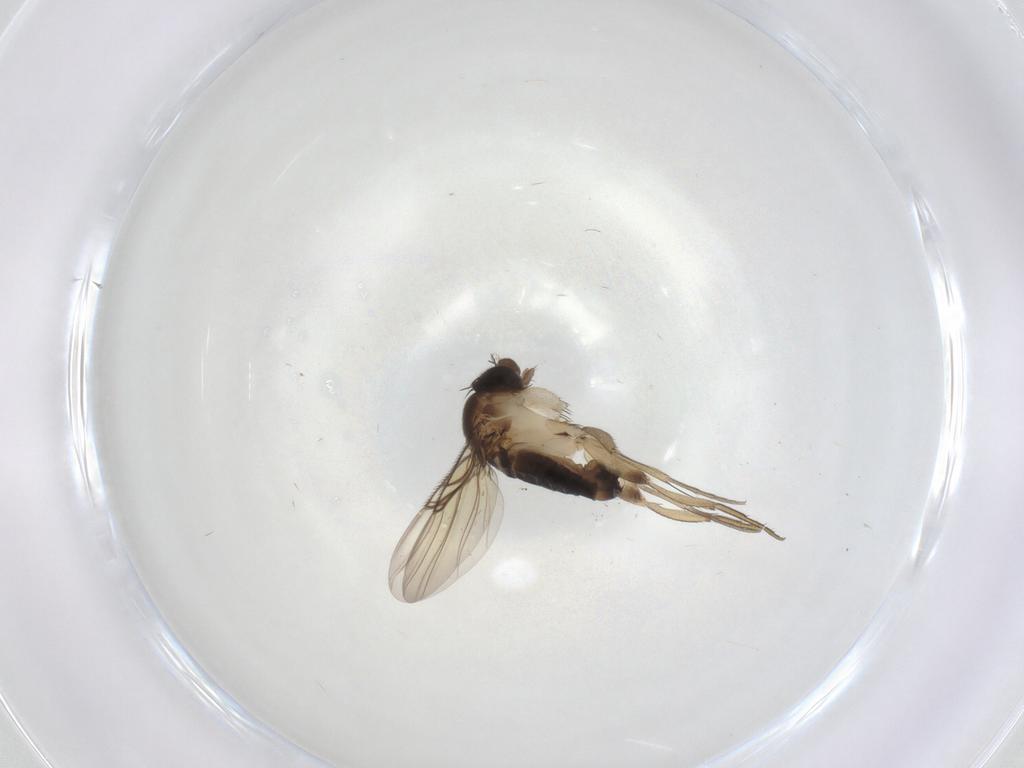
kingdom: Animalia
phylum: Arthropoda
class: Insecta
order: Diptera
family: Phoridae
